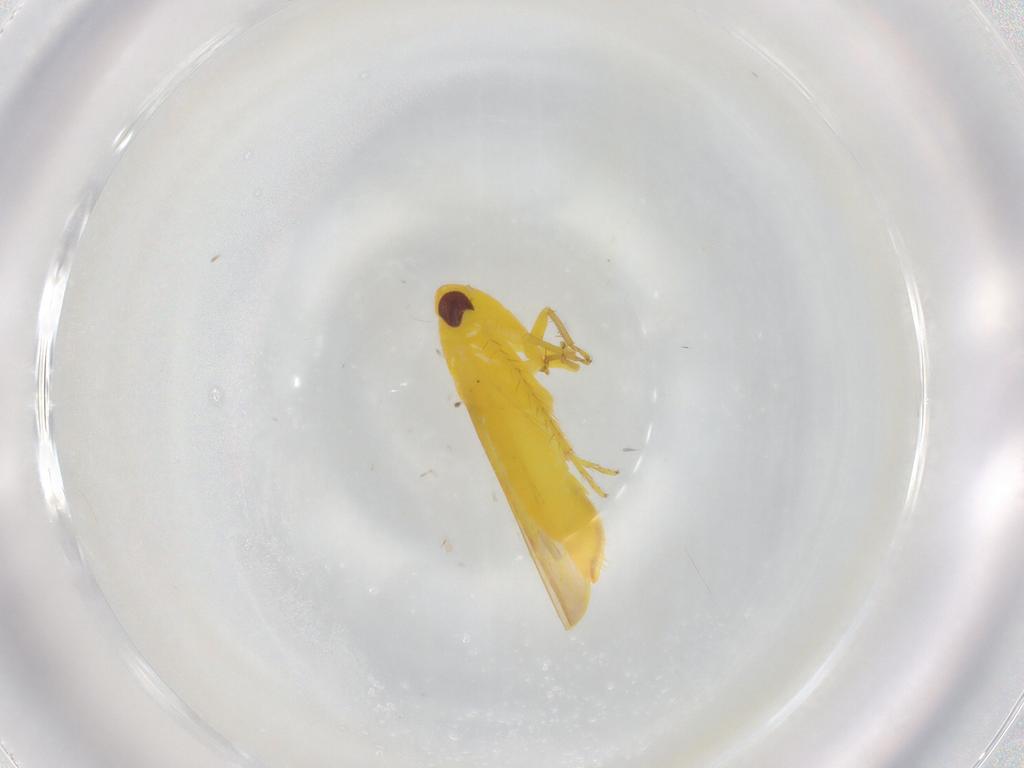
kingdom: Animalia
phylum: Arthropoda
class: Insecta
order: Hemiptera
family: Cicadellidae
